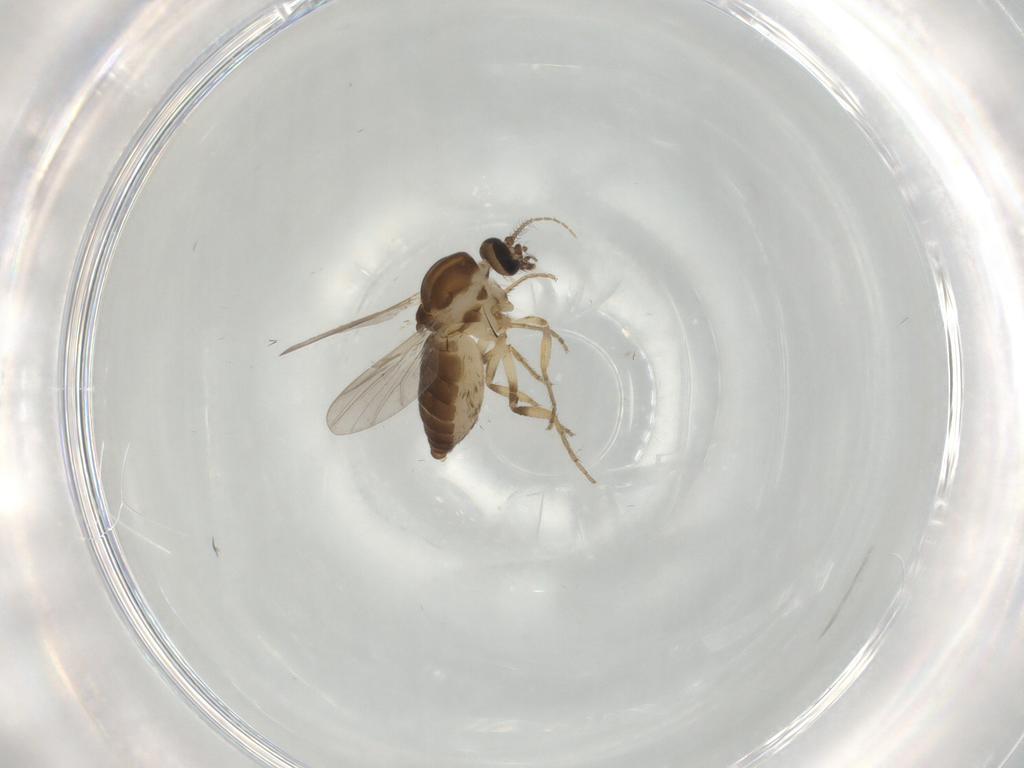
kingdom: Animalia
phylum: Arthropoda
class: Insecta
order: Diptera
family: Ceratopogonidae
